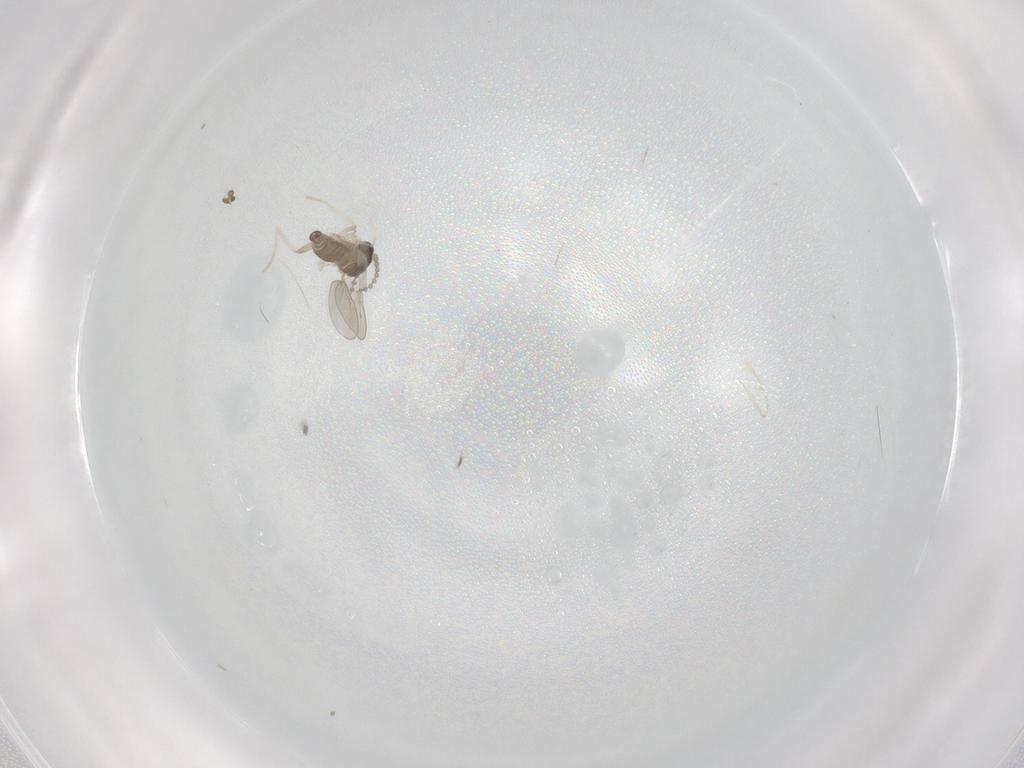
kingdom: Animalia
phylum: Arthropoda
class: Insecta
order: Diptera
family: Cecidomyiidae
